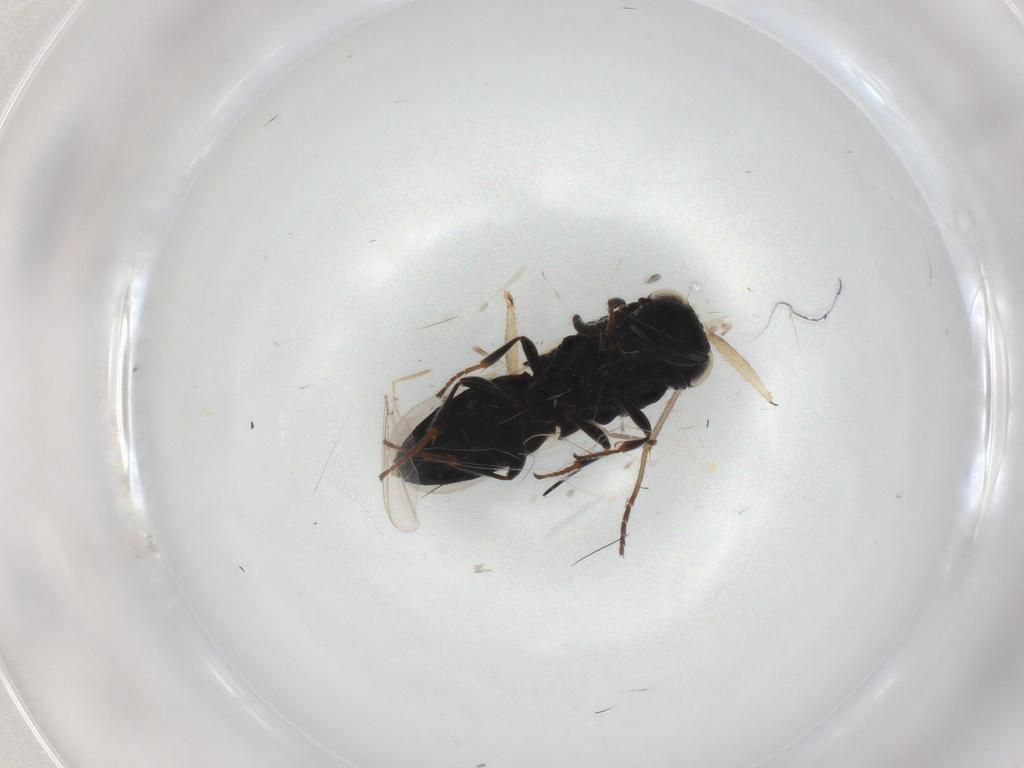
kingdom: Animalia
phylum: Arthropoda
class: Insecta
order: Hymenoptera
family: Scelionidae
